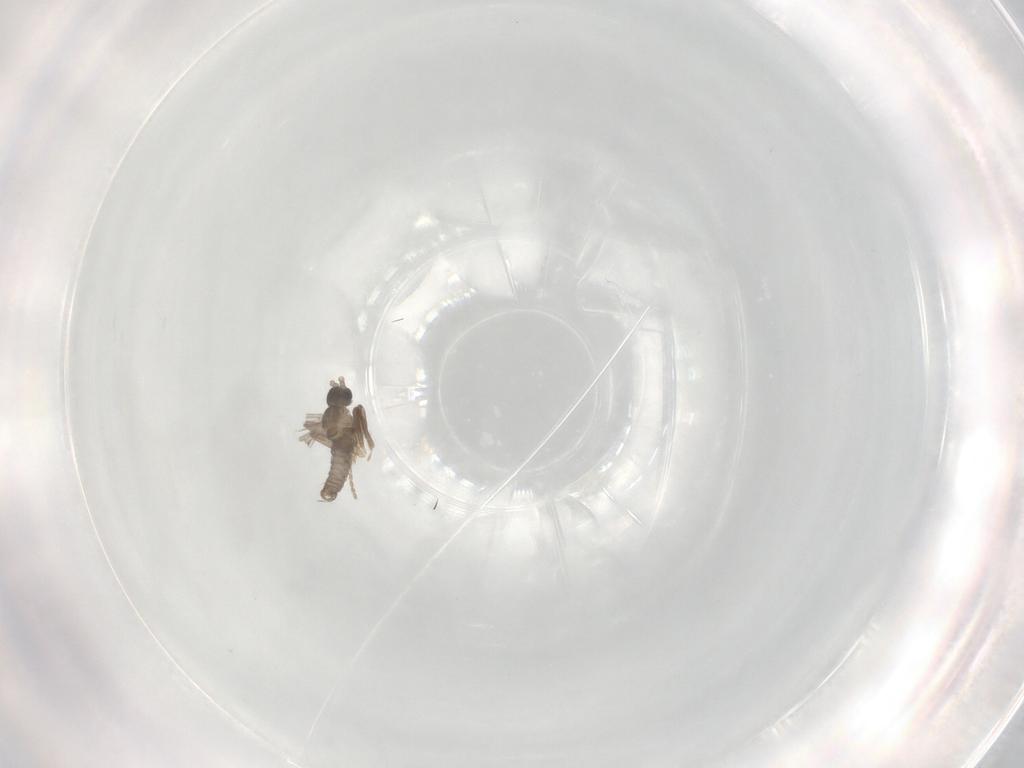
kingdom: Animalia
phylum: Arthropoda
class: Insecta
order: Diptera
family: Cecidomyiidae
